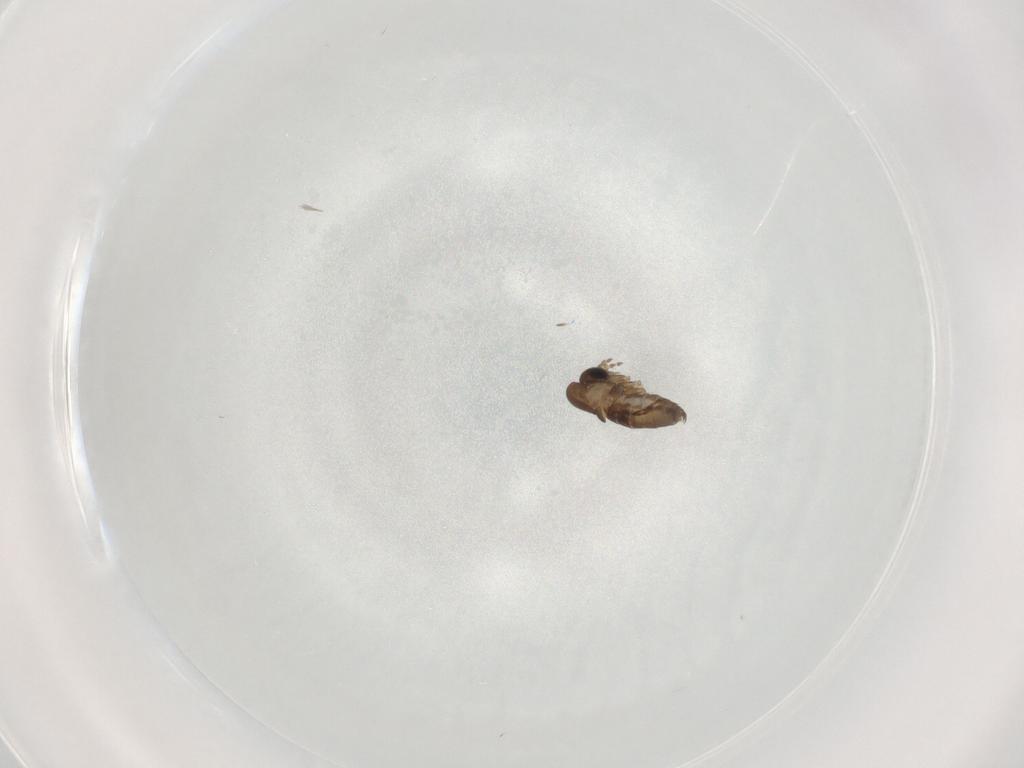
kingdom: Animalia
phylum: Arthropoda
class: Insecta
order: Diptera
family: Psychodidae
